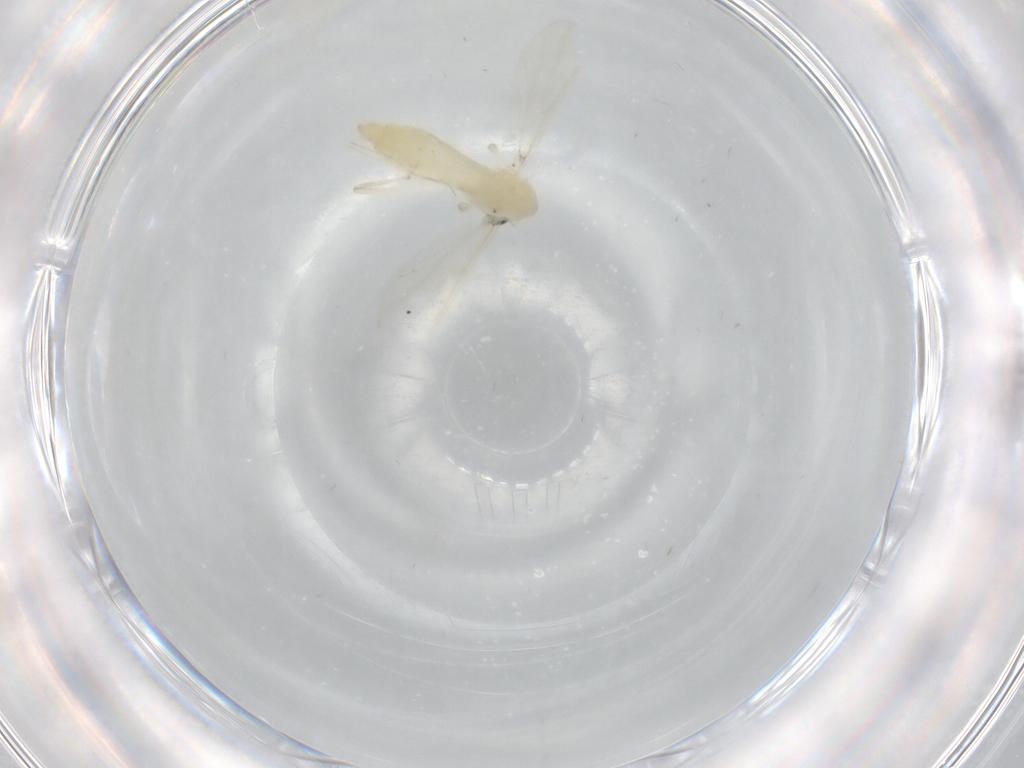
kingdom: Animalia
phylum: Arthropoda
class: Insecta
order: Diptera
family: Chironomidae
